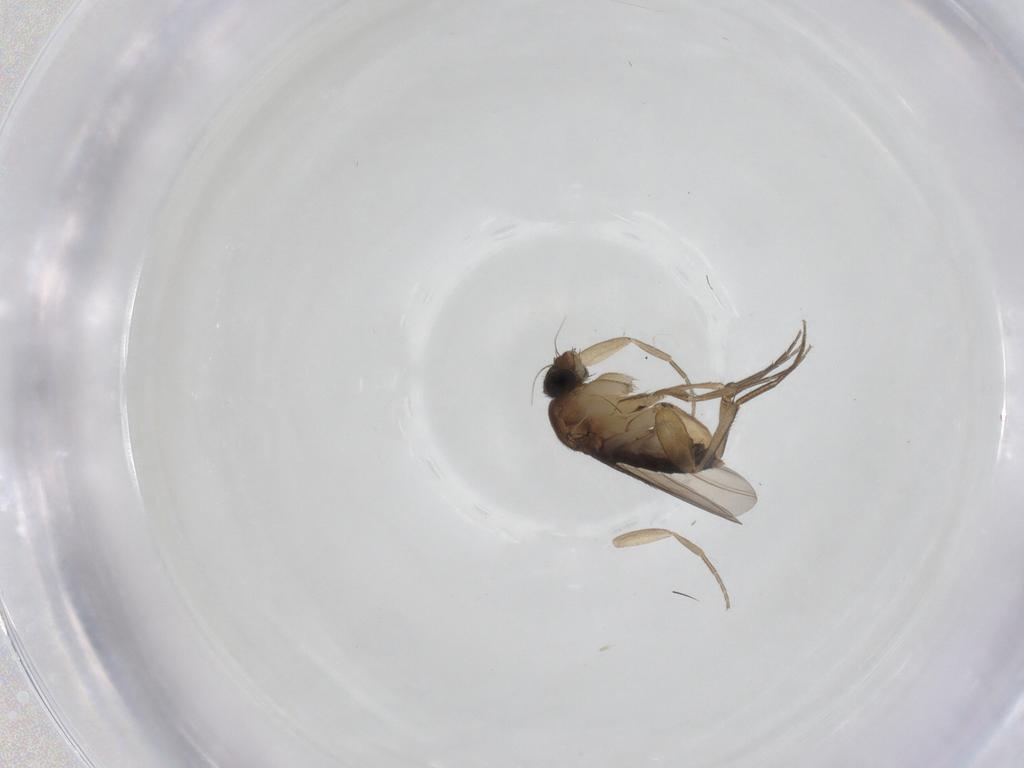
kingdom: Animalia
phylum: Arthropoda
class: Insecta
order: Diptera
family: Phoridae
